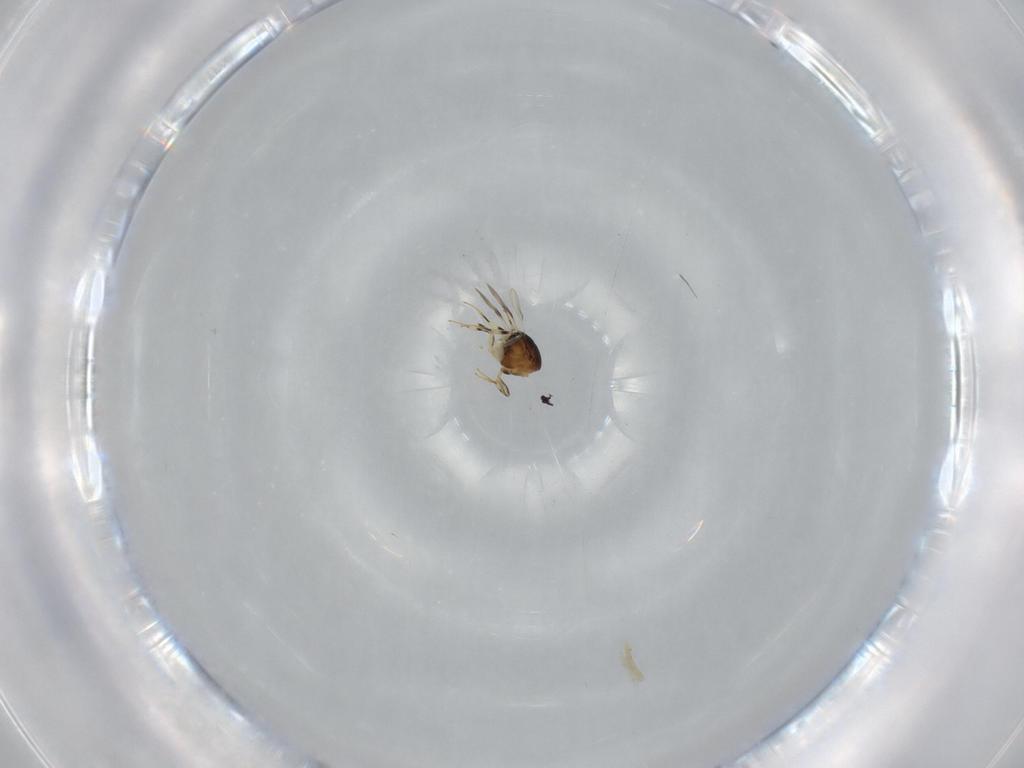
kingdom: Animalia
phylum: Arthropoda
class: Insecta
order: Hymenoptera
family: Scelionidae
